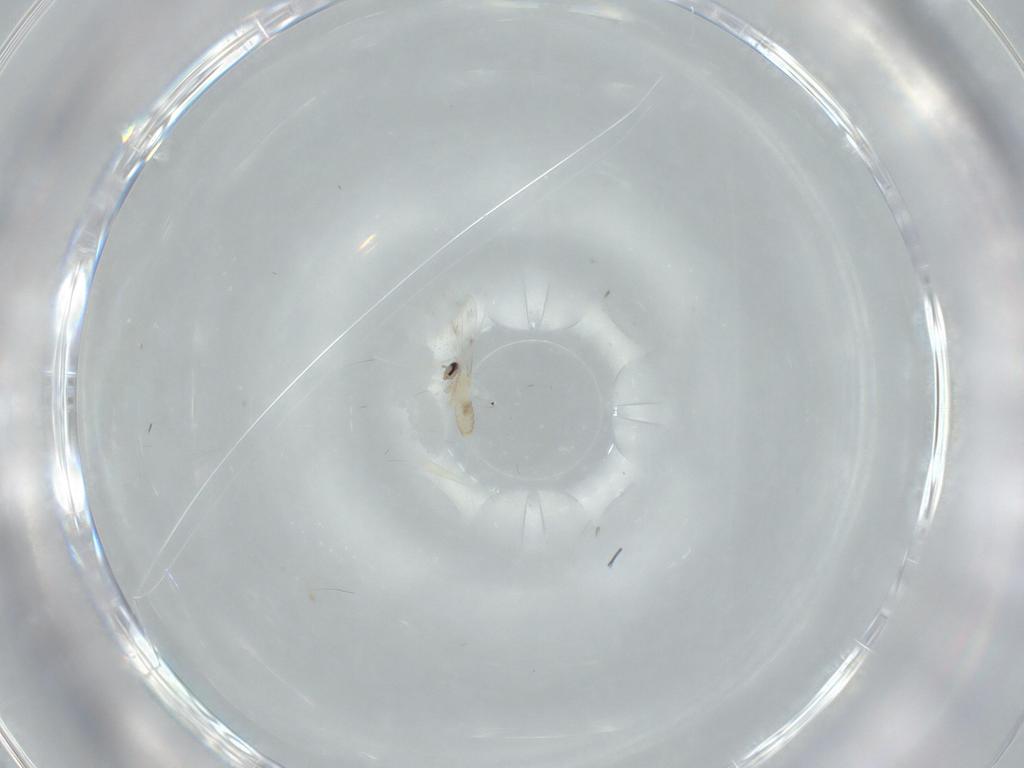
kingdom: Animalia
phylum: Arthropoda
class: Insecta
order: Diptera
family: Cecidomyiidae
